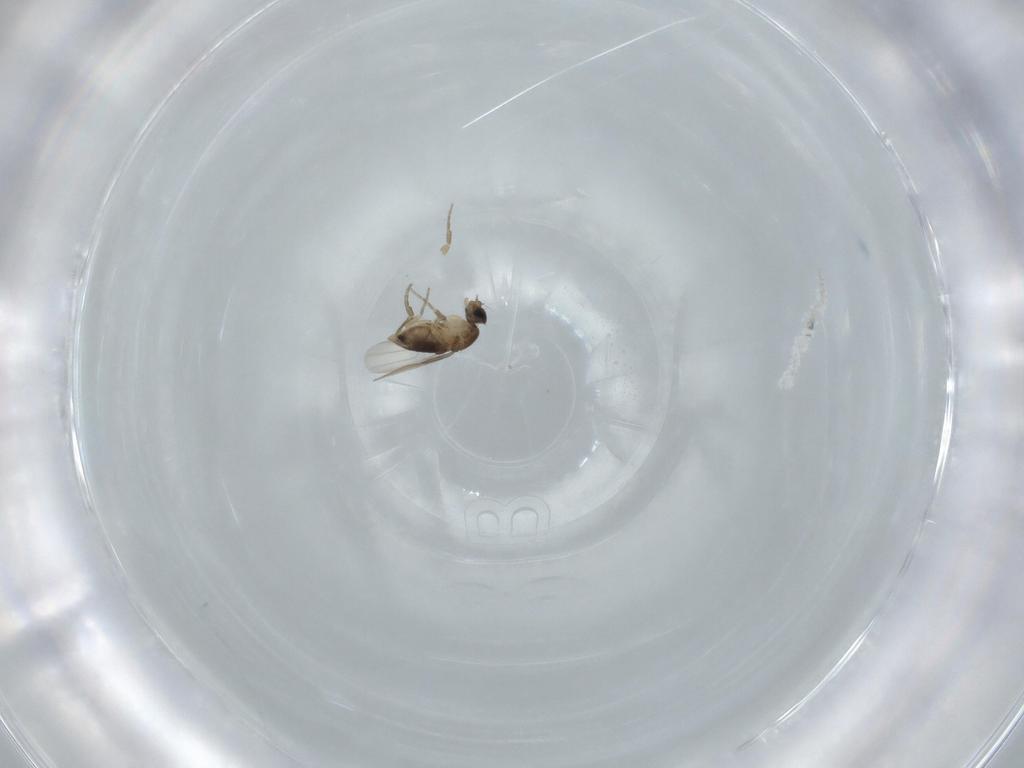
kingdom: Animalia
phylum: Arthropoda
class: Insecta
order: Diptera
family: Phoridae
